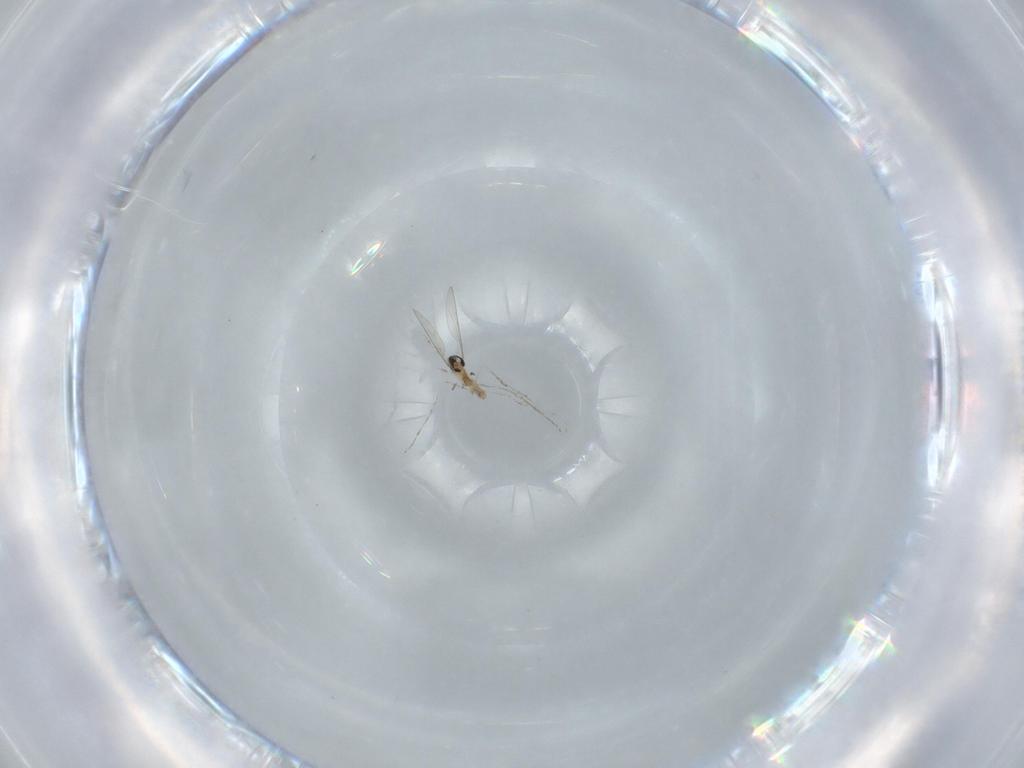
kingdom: Animalia
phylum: Arthropoda
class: Insecta
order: Diptera
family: Cecidomyiidae
